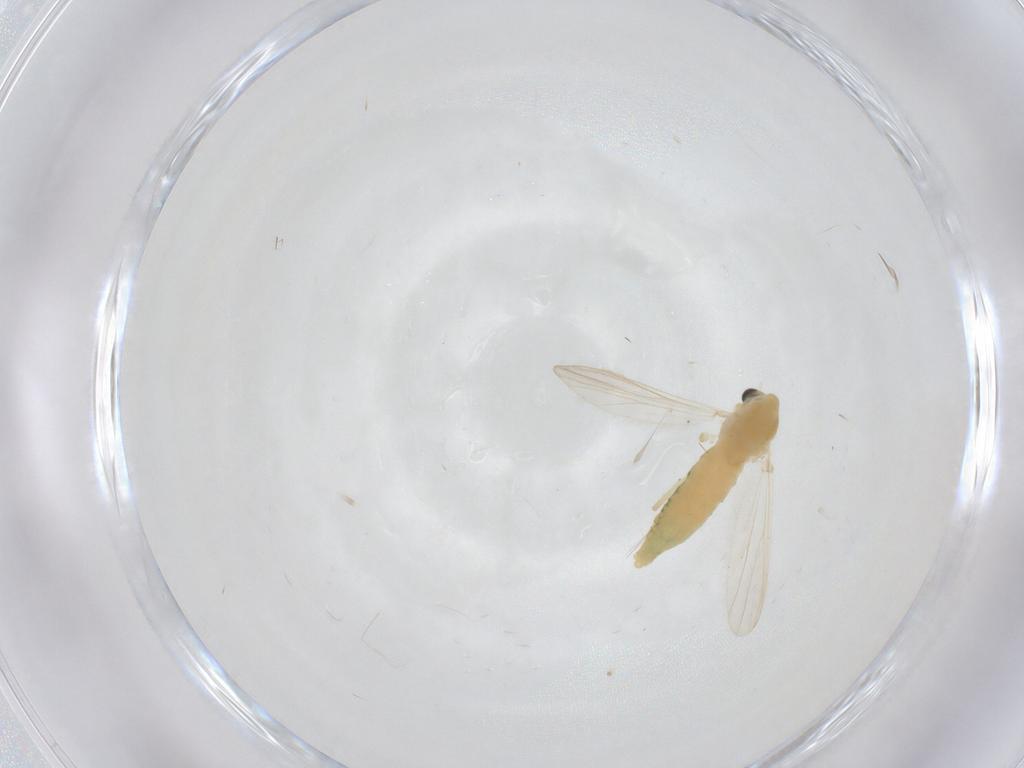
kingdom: Animalia
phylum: Arthropoda
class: Insecta
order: Diptera
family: Chironomidae
